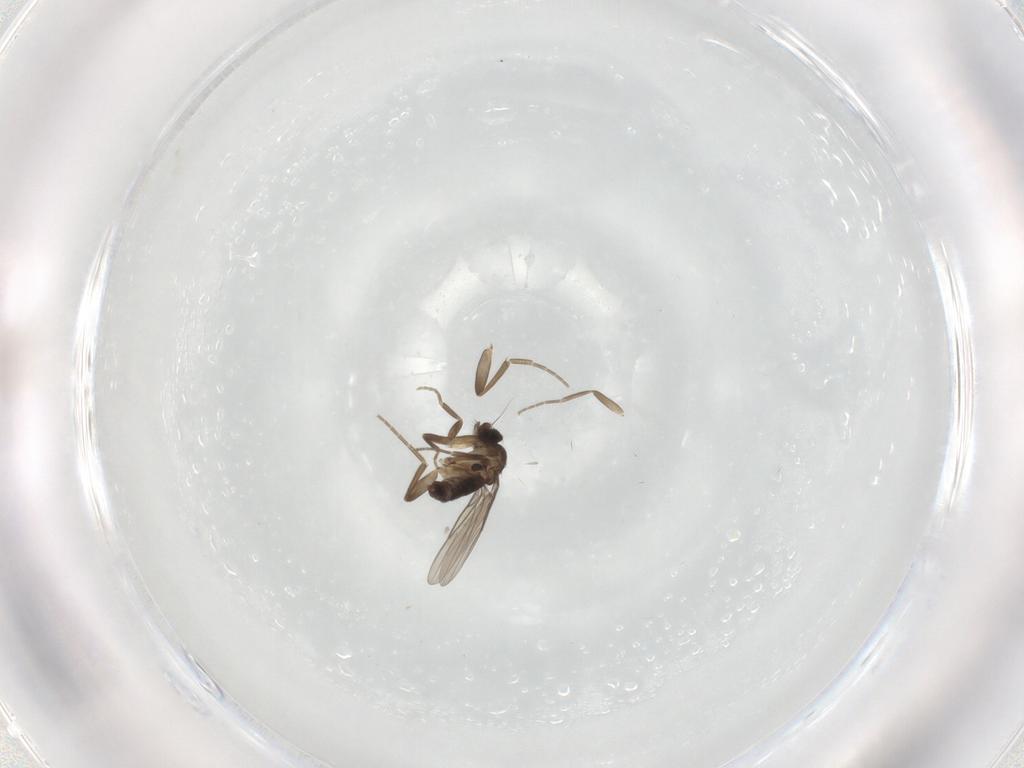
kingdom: Animalia
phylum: Arthropoda
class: Insecta
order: Diptera
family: Phoridae
